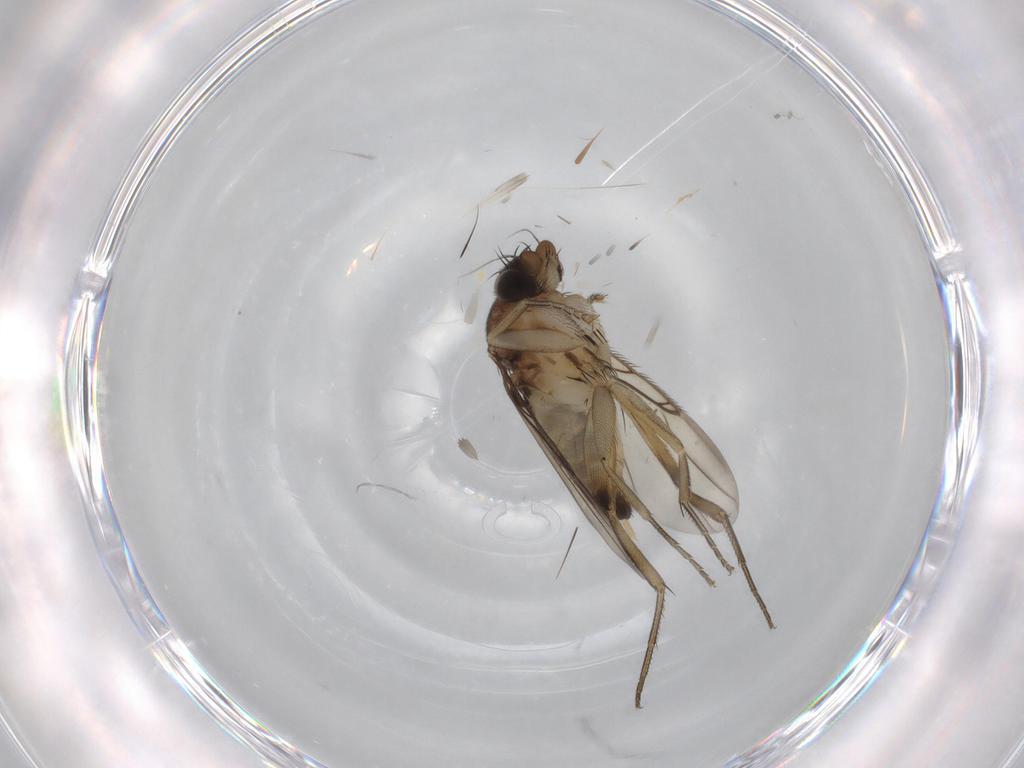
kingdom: Animalia
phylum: Arthropoda
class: Insecta
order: Diptera
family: Phoridae
